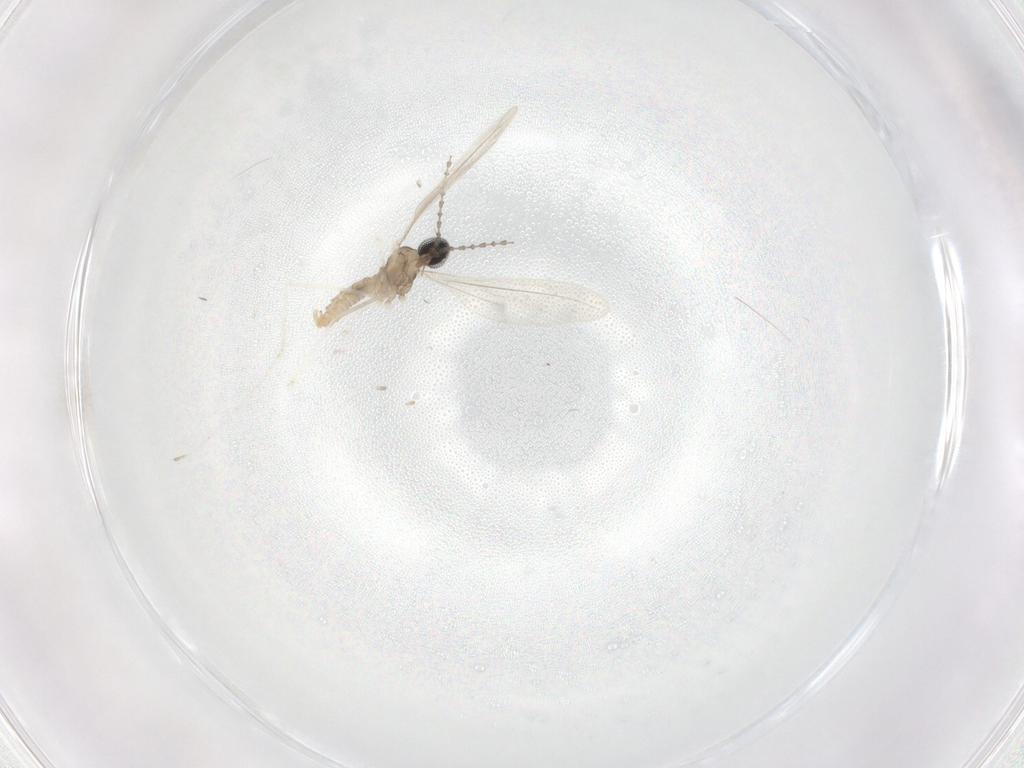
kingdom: Animalia
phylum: Arthropoda
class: Insecta
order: Diptera
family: Cecidomyiidae
